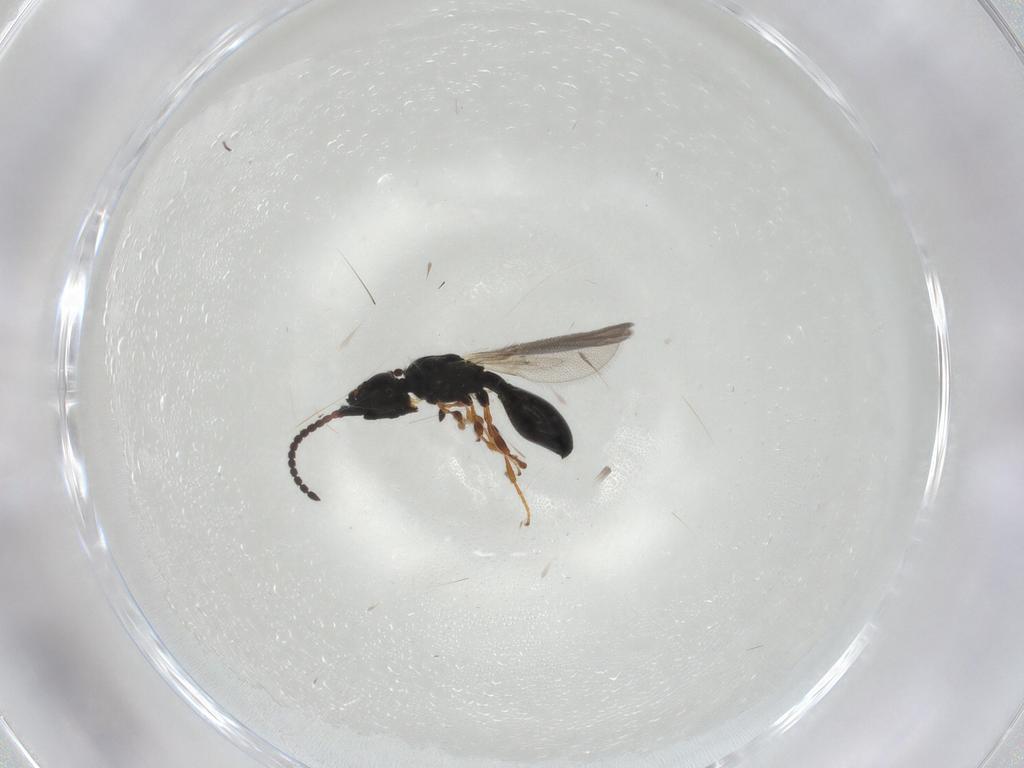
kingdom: Animalia
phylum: Arthropoda
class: Insecta
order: Hymenoptera
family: Diapriidae
